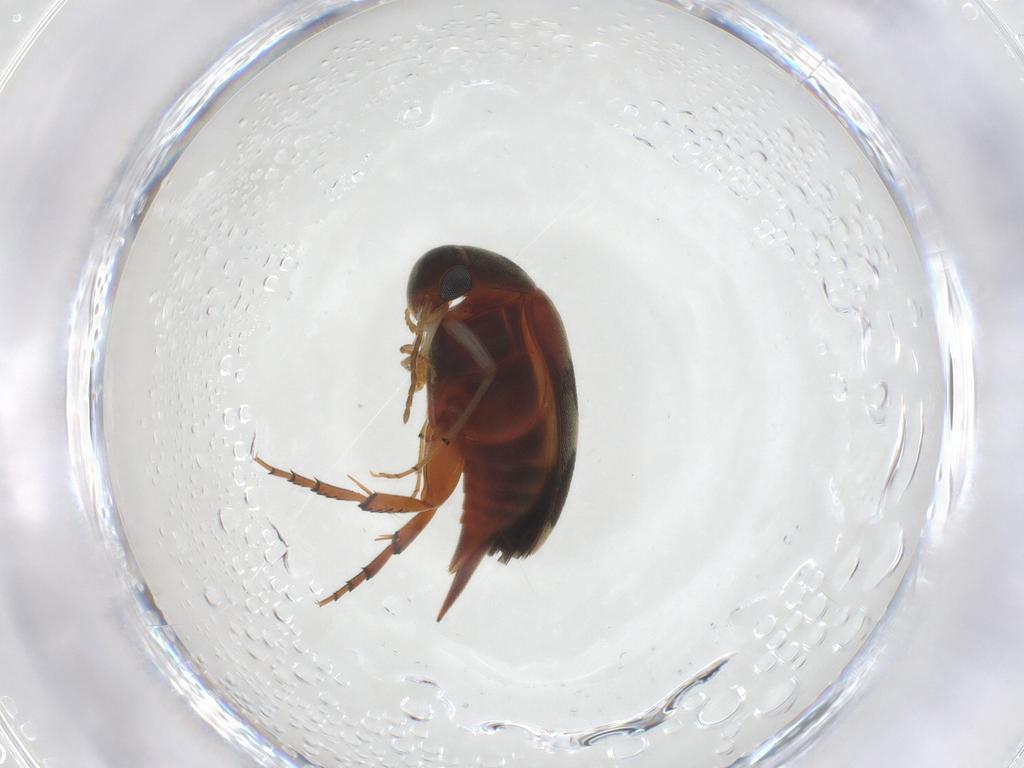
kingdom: Animalia
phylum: Arthropoda
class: Insecta
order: Coleoptera
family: Mordellidae
